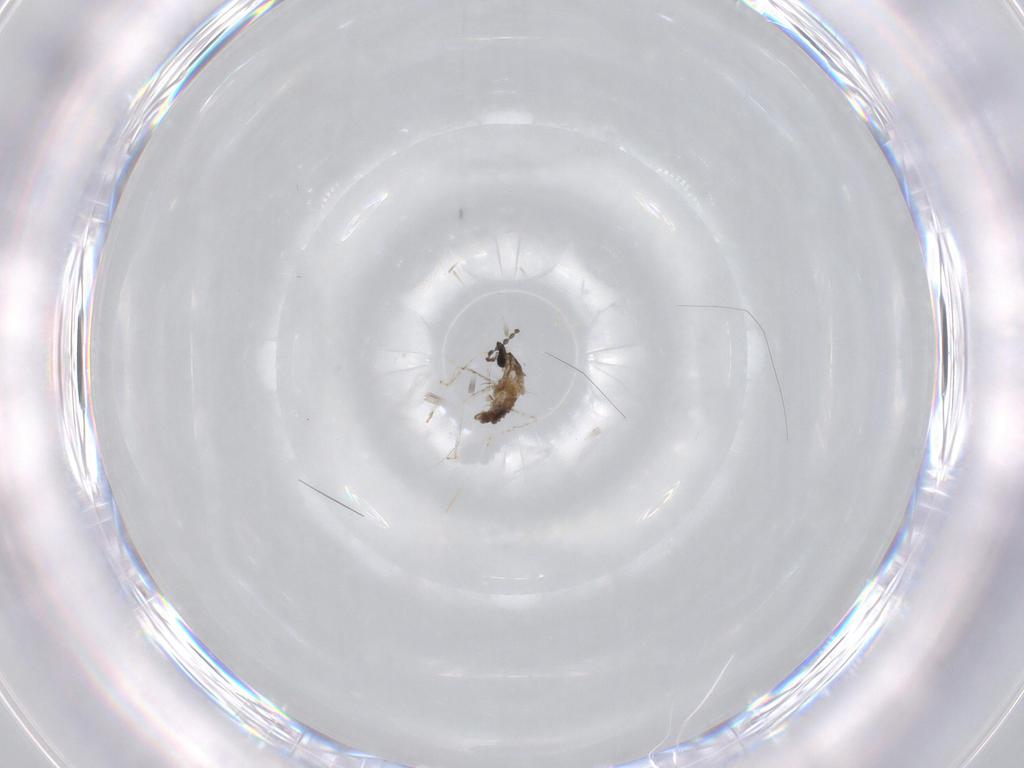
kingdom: Animalia
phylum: Arthropoda
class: Insecta
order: Diptera
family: Cecidomyiidae
